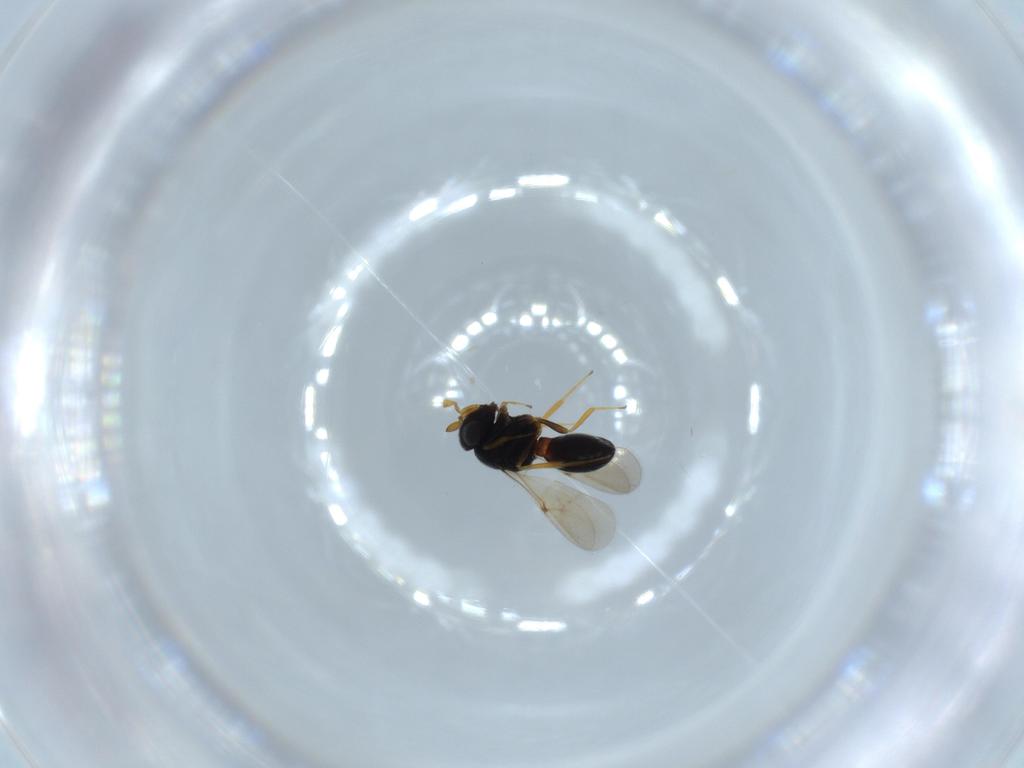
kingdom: Animalia
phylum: Arthropoda
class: Insecta
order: Hymenoptera
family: Scelionidae
